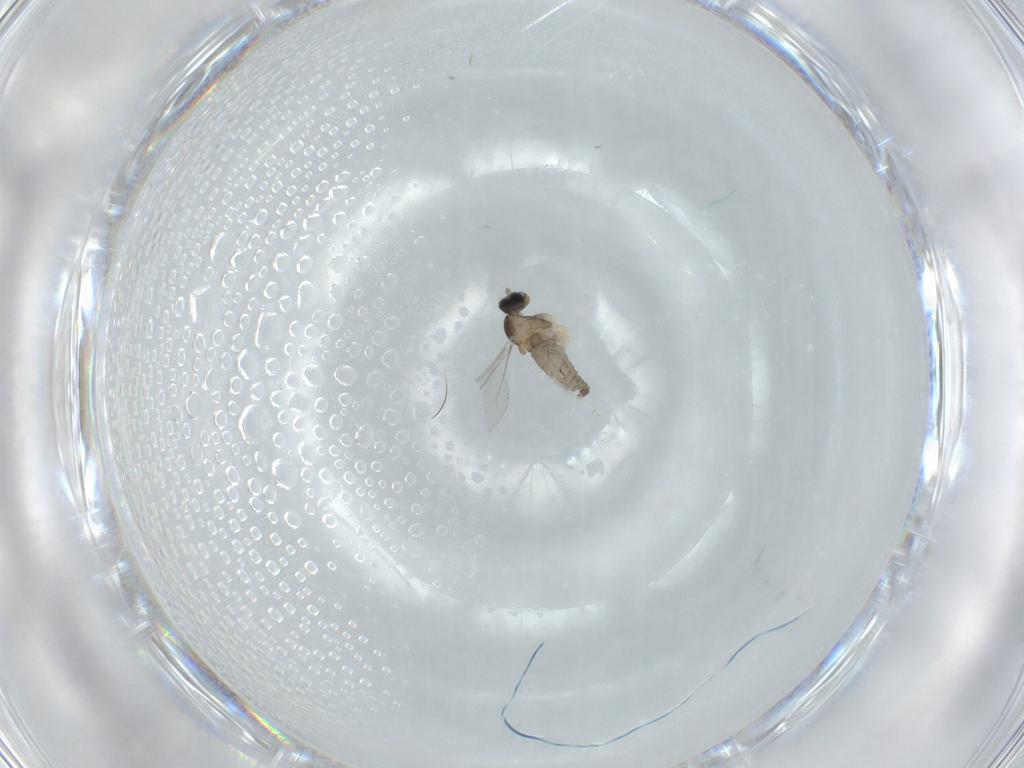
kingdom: Animalia
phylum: Arthropoda
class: Insecta
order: Diptera
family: Cecidomyiidae
